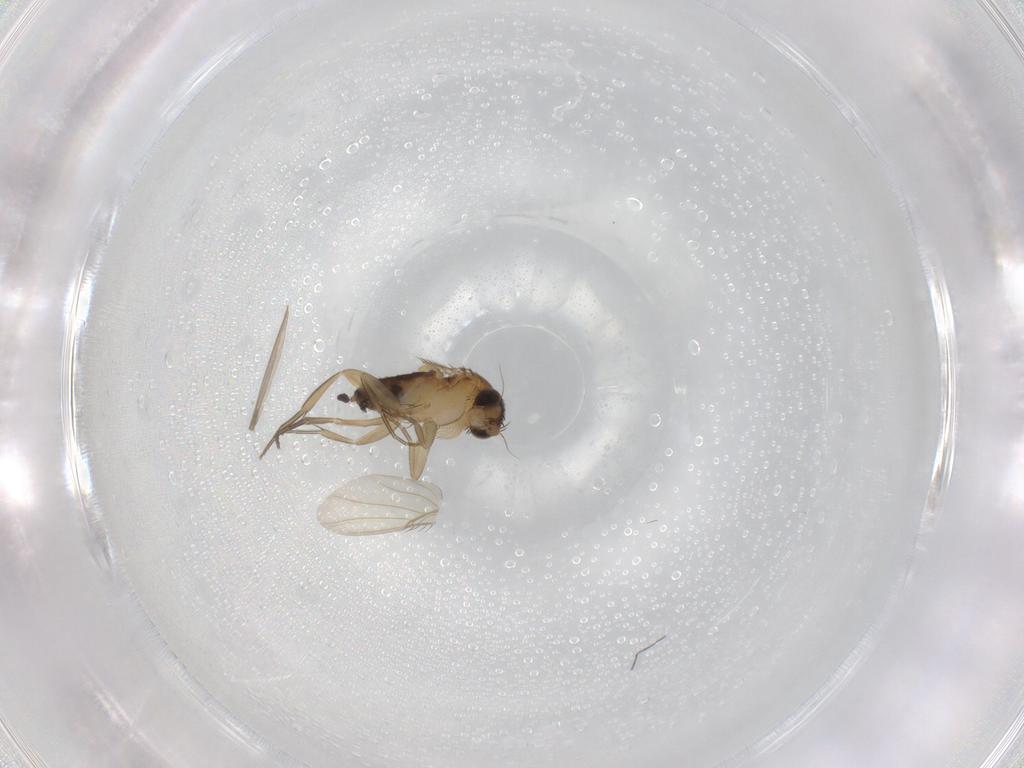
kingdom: Animalia
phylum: Arthropoda
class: Insecta
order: Diptera
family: Phoridae
